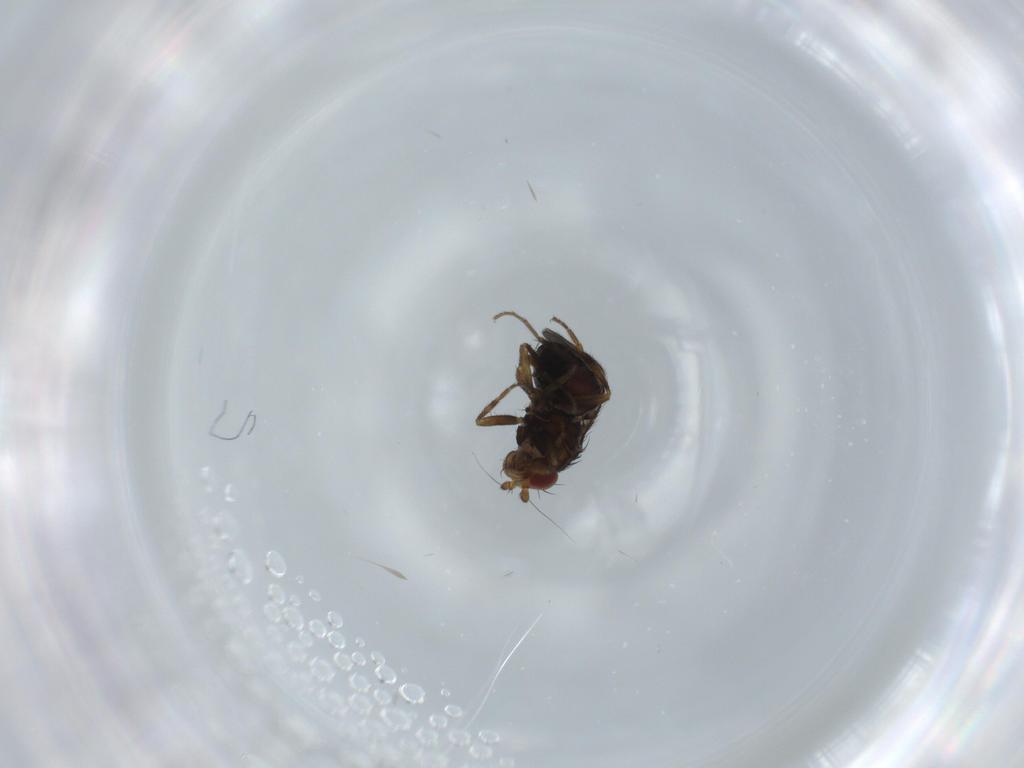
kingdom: Animalia
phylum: Arthropoda
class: Insecta
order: Diptera
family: Sphaeroceridae
